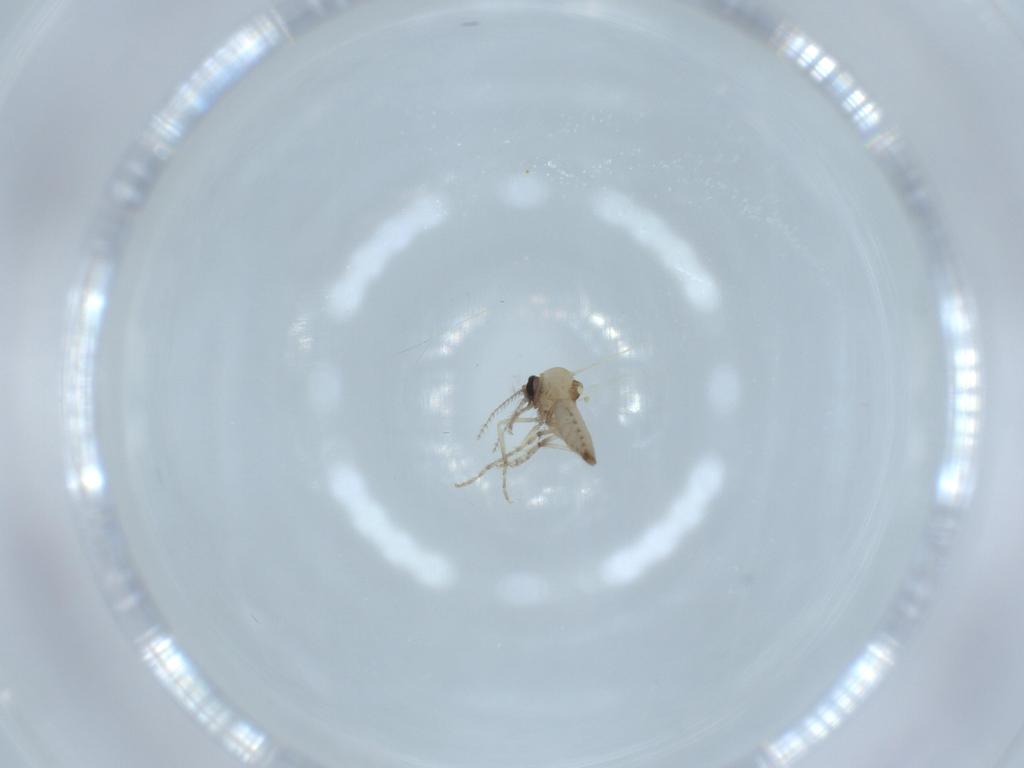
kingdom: Animalia
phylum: Arthropoda
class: Insecta
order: Diptera
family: Ceratopogonidae
